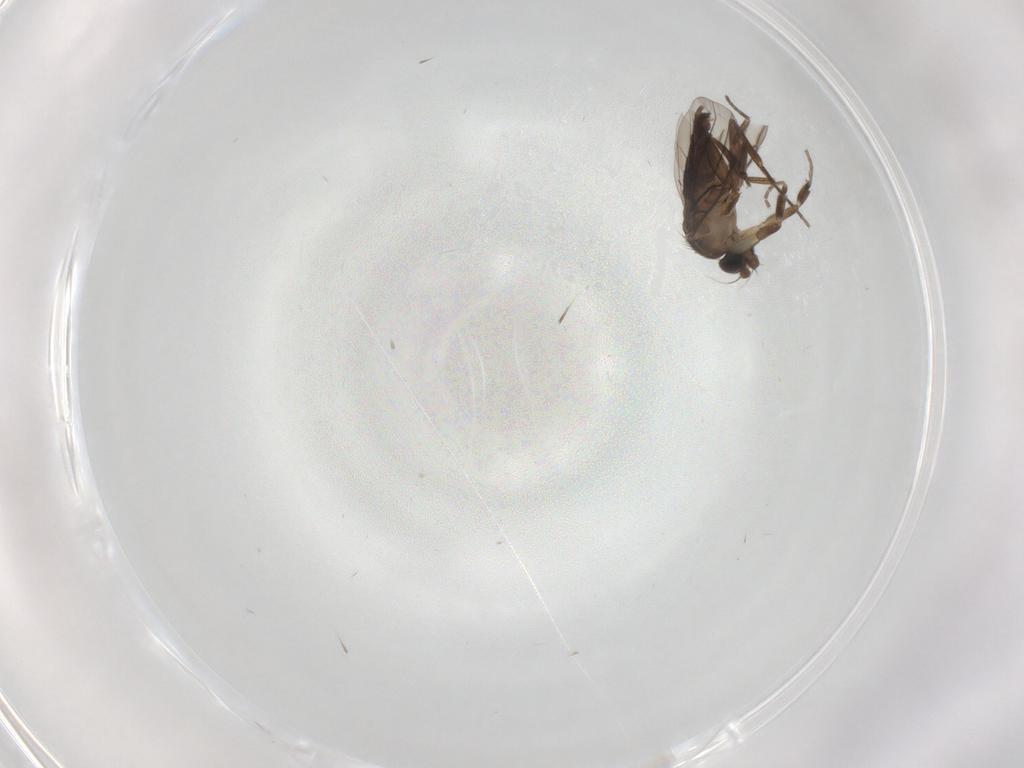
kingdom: Animalia
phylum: Arthropoda
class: Insecta
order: Diptera
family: Phoridae
